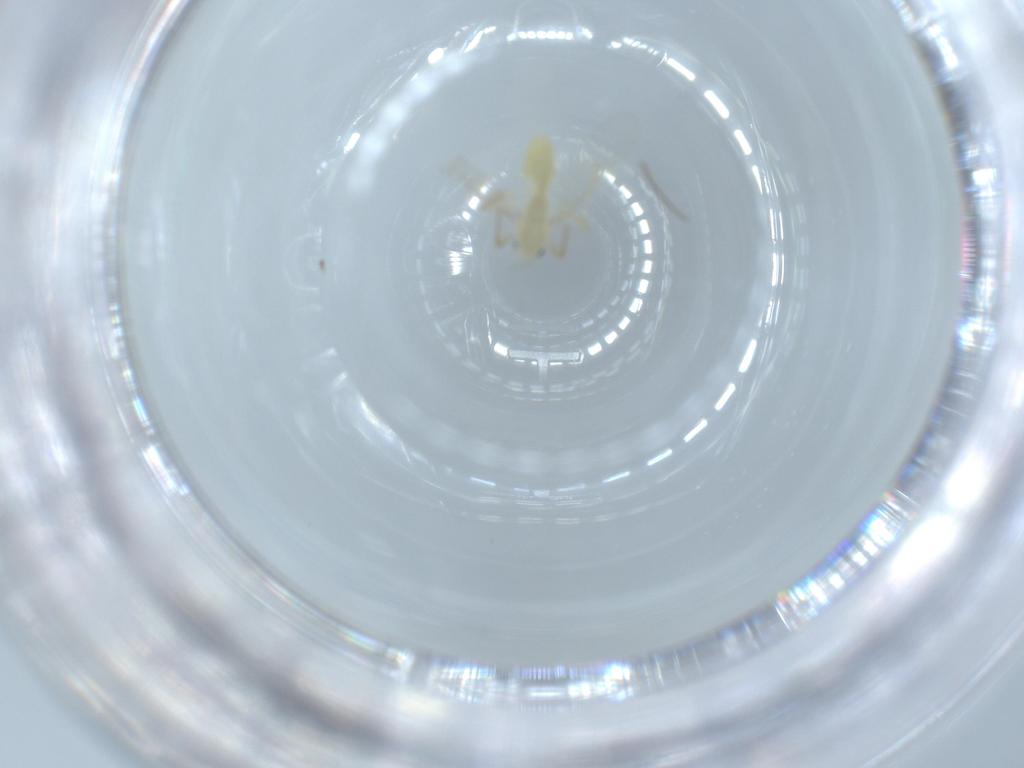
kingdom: Animalia
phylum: Arthropoda
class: Insecta
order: Diptera
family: Chironomidae
